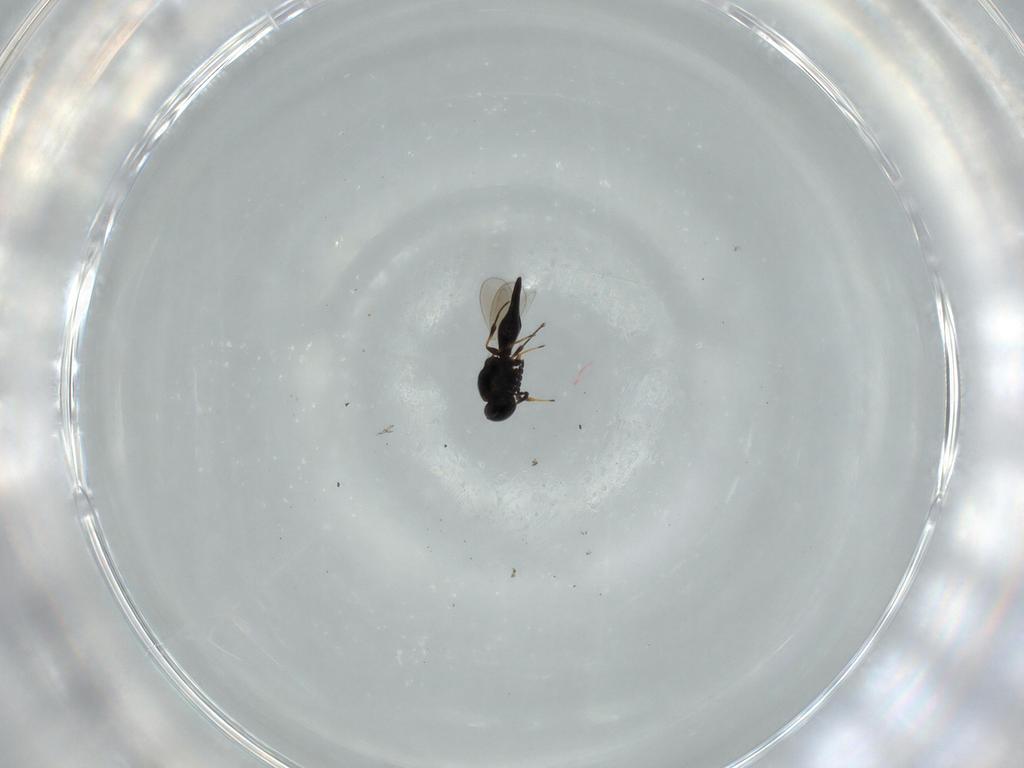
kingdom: Animalia
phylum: Arthropoda
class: Insecta
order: Hymenoptera
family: Platygastridae
